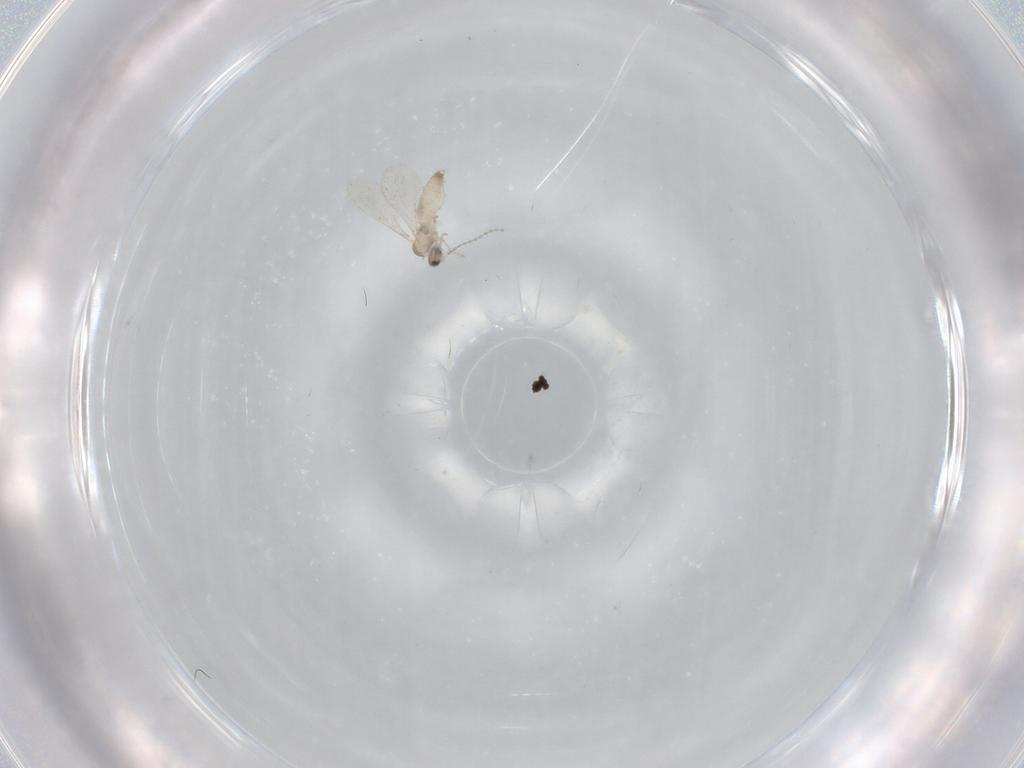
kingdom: Animalia
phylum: Arthropoda
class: Insecta
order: Diptera
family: Cecidomyiidae
